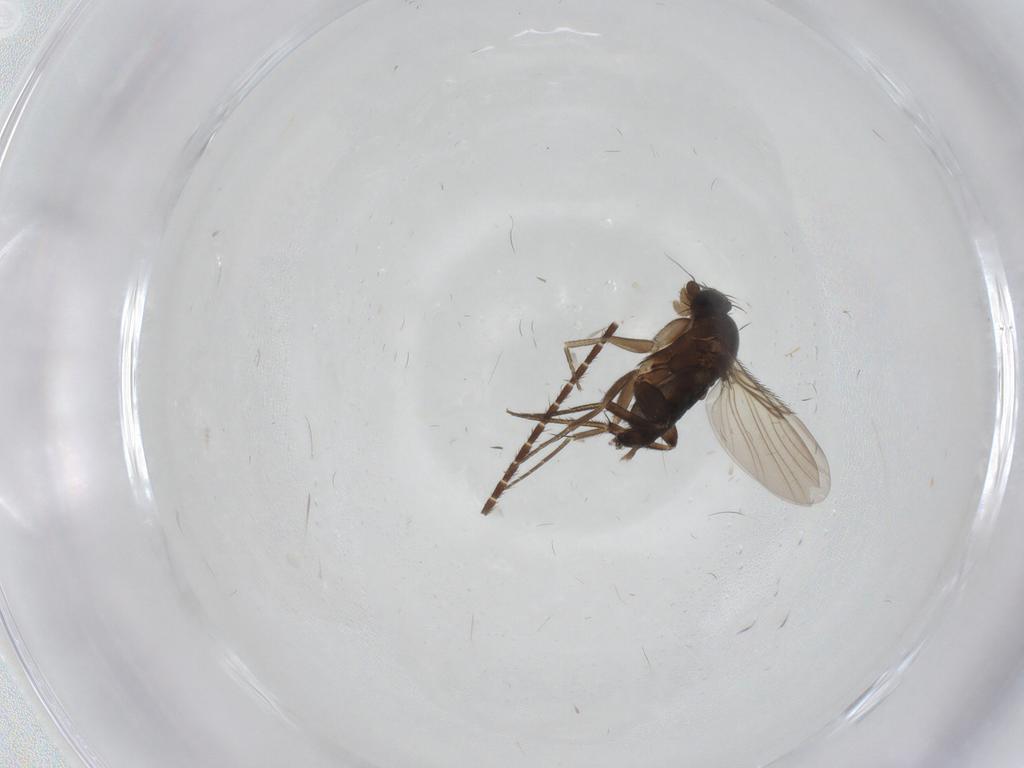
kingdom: Animalia
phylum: Arthropoda
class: Insecta
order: Diptera
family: Phoridae
